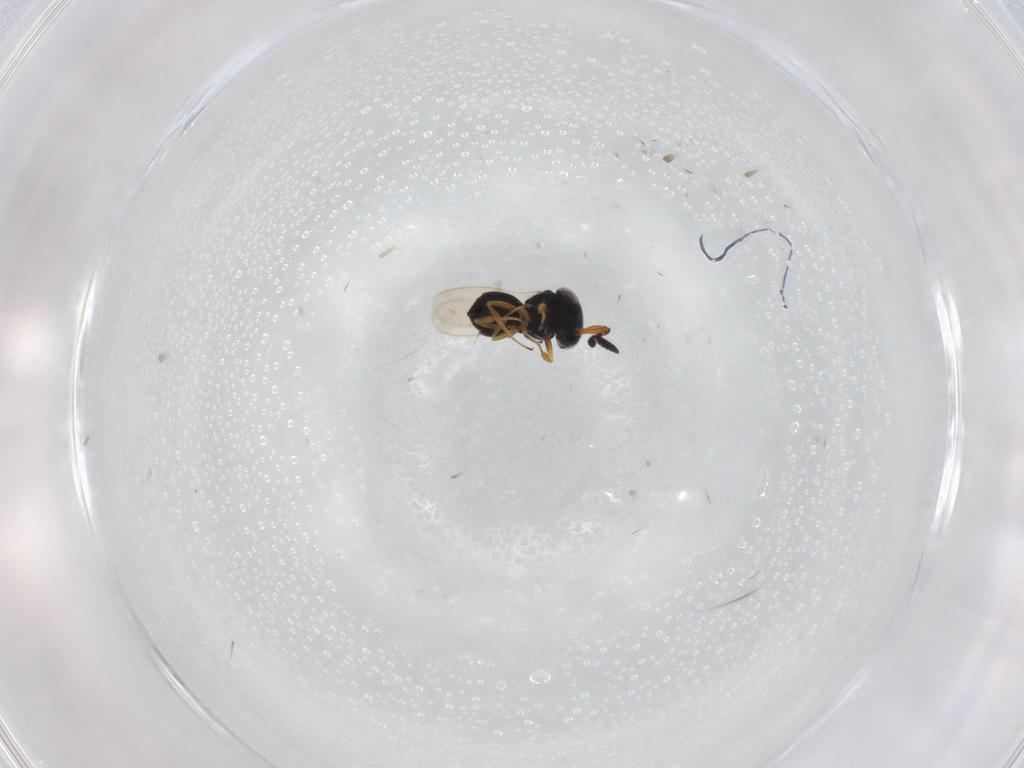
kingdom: Animalia
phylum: Arthropoda
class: Insecta
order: Hymenoptera
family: Scelionidae
